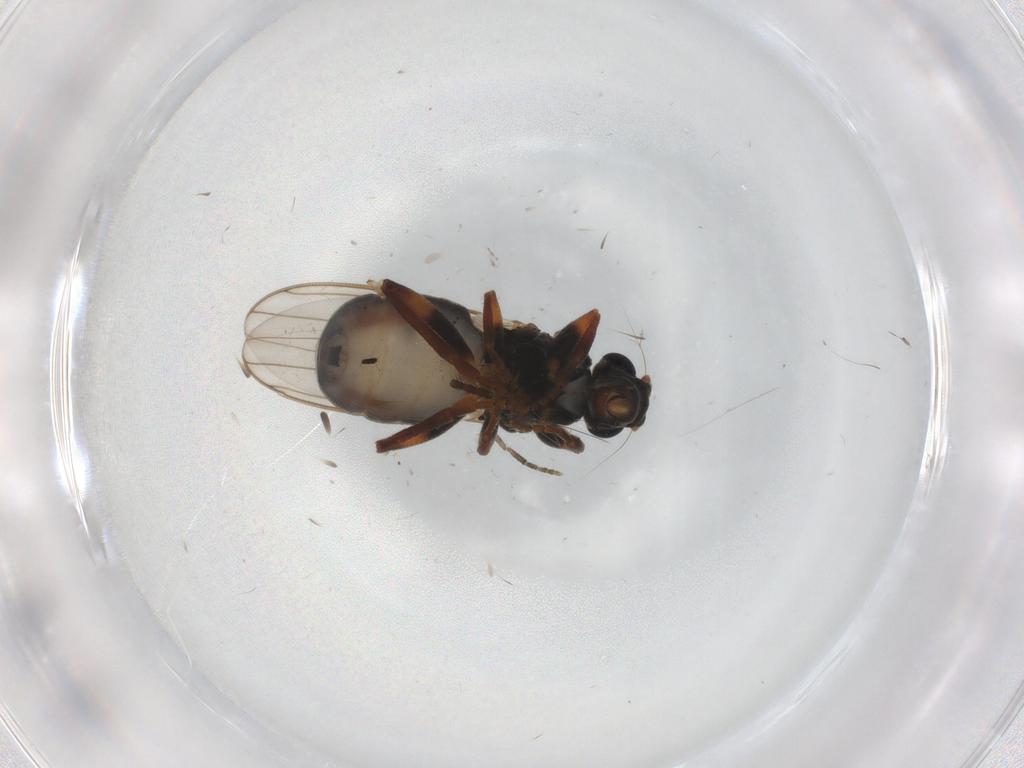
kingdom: Animalia
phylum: Arthropoda
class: Insecta
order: Diptera
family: Sphaeroceridae
